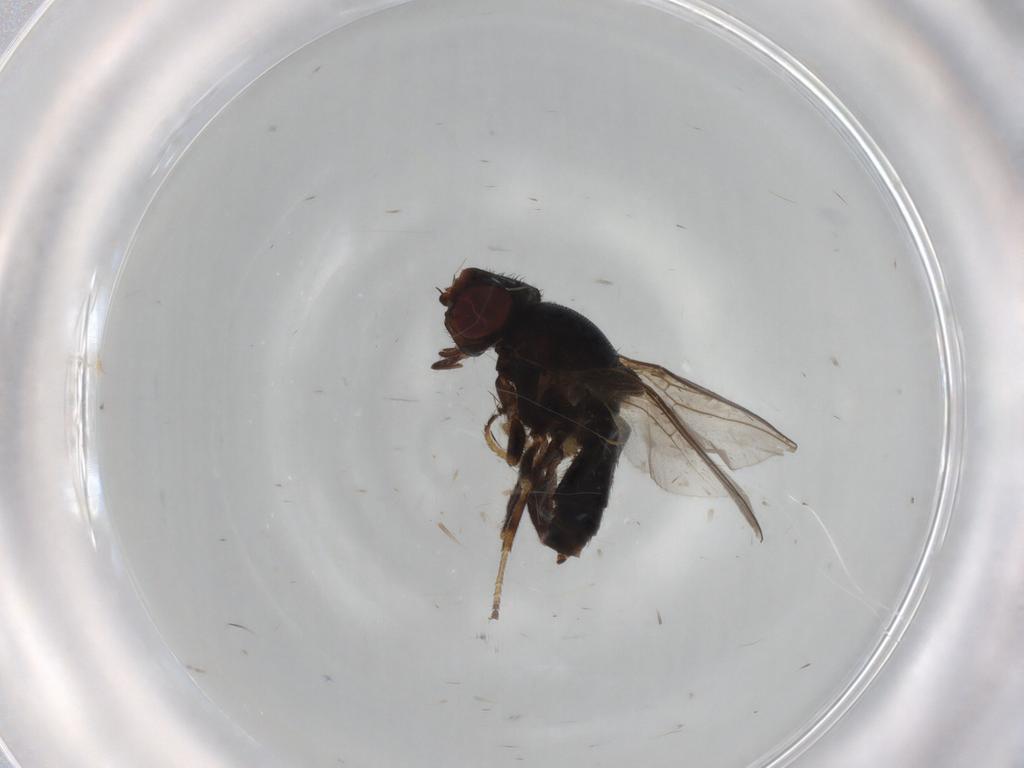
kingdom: Animalia
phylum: Arthropoda
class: Insecta
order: Diptera
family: Chloropidae
